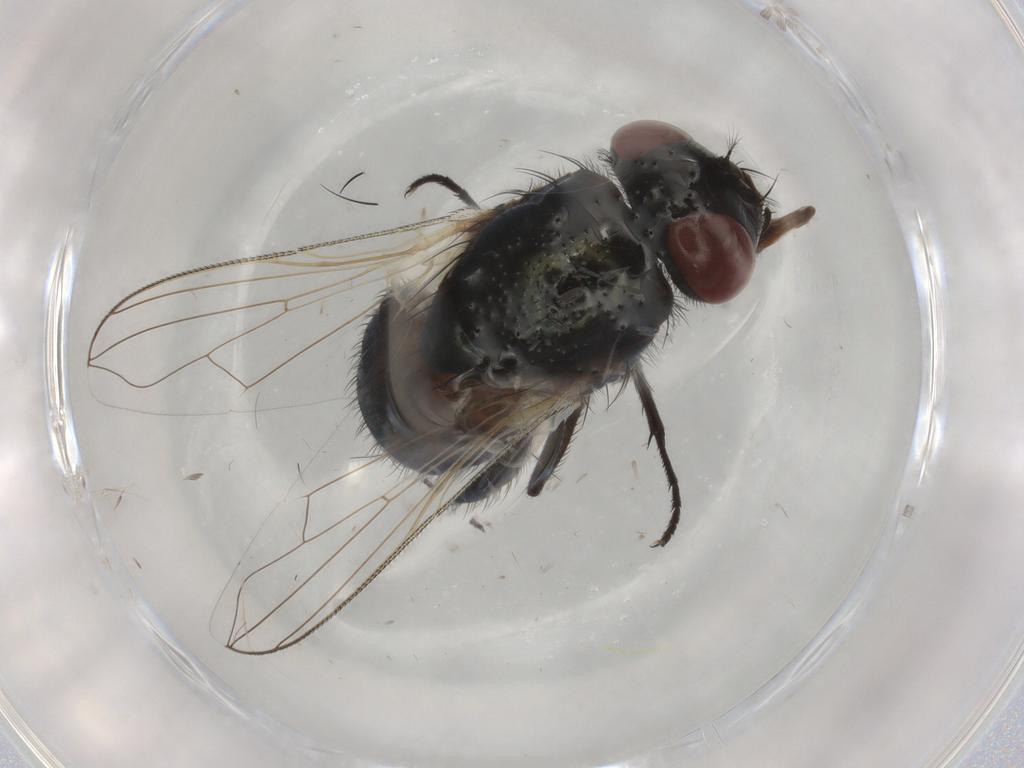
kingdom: Animalia
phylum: Arthropoda
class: Insecta
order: Diptera
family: Muscidae
